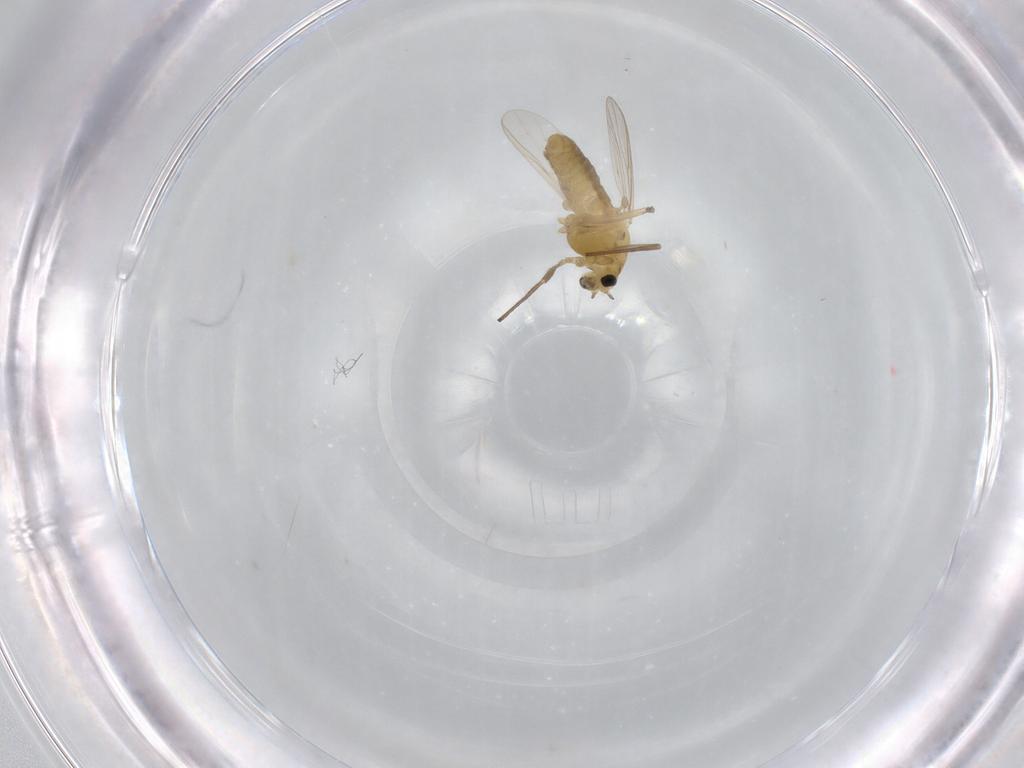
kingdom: Animalia
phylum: Arthropoda
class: Insecta
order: Diptera
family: Chironomidae
